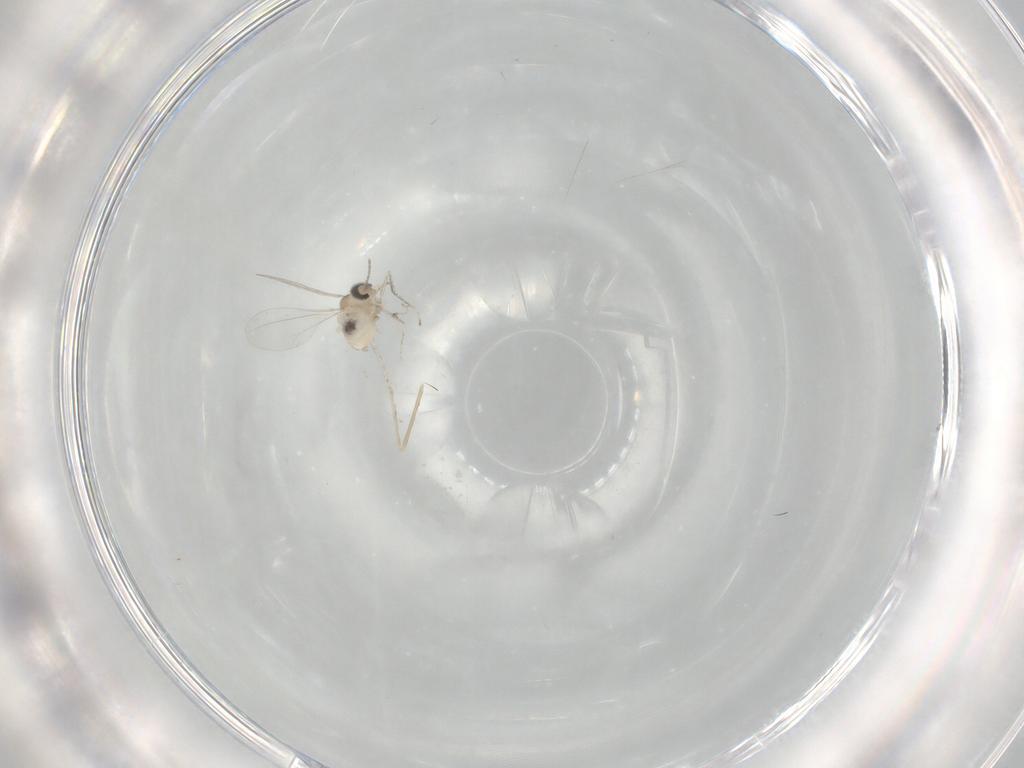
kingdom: Animalia
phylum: Arthropoda
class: Insecta
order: Diptera
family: Cecidomyiidae
